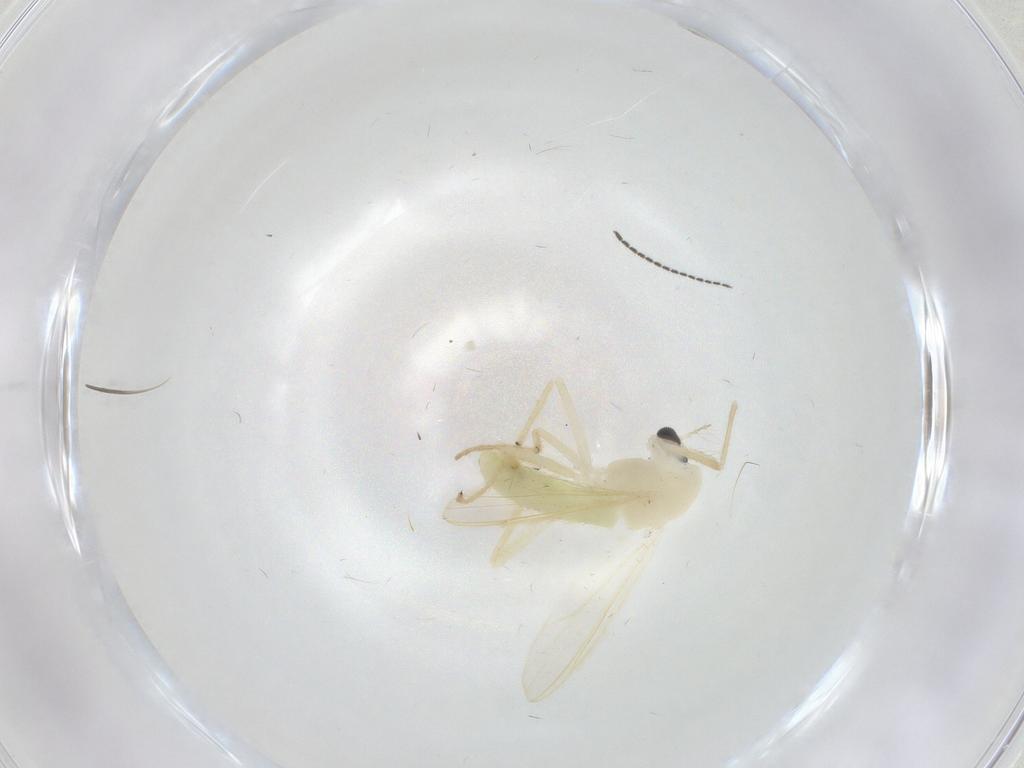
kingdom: Animalia
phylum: Arthropoda
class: Insecta
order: Diptera
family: Chironomidae
